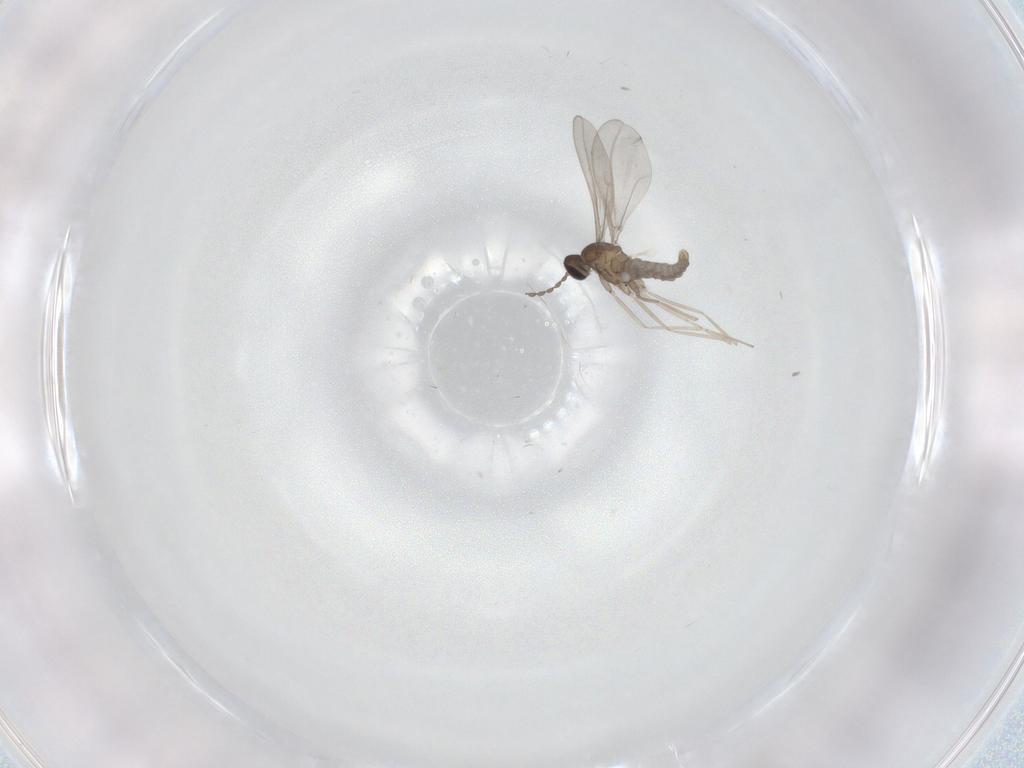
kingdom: Animalia
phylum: Arthropoda
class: Insecta
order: Diptera
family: Cecidomyiidae
